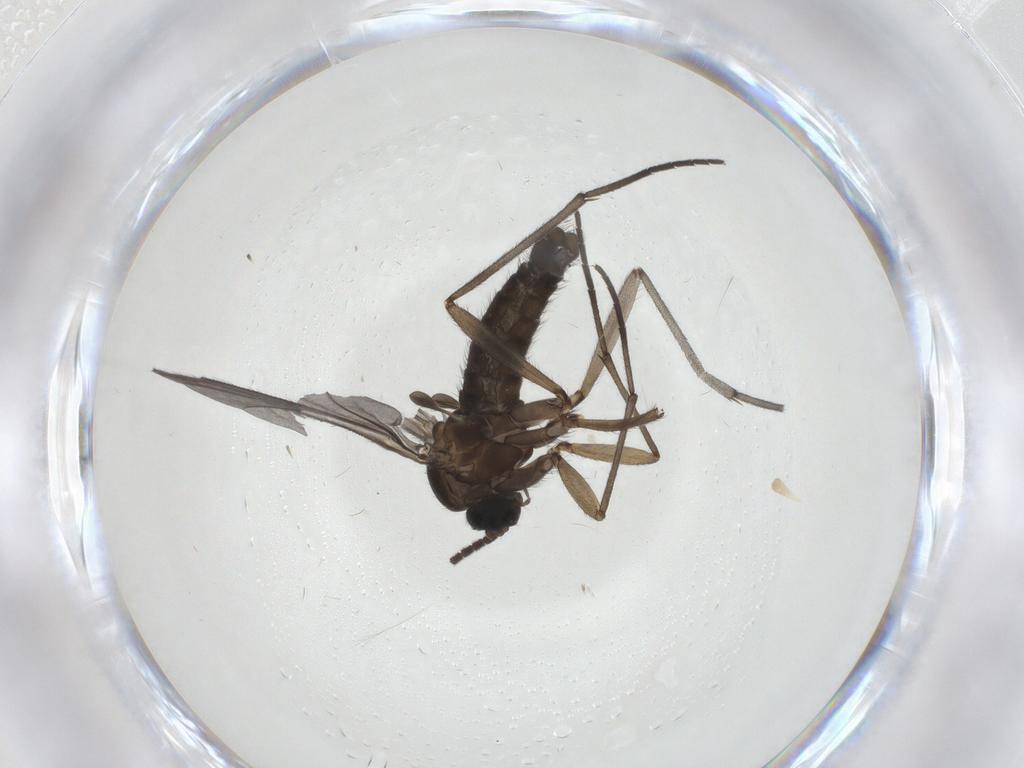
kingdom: Animalia
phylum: Arthropoda
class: Insecta
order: Diptera
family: Sciaridae
